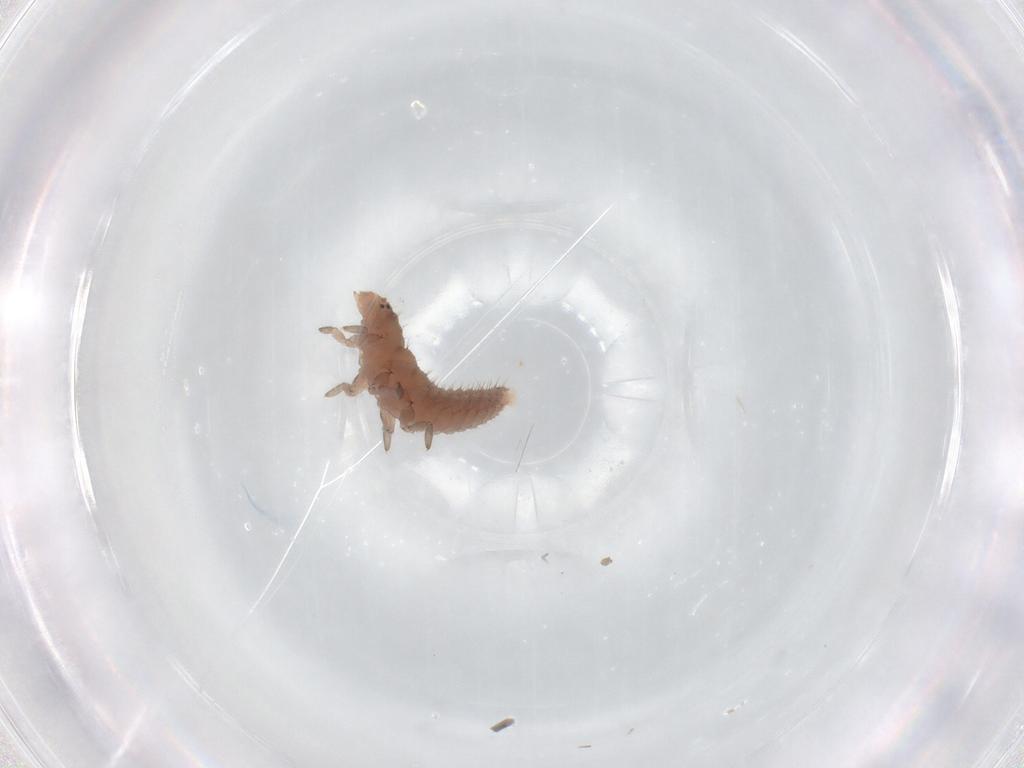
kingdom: Animalia
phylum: Arthropoda
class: Insecta
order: Coleoptera
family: Coccinellidae
